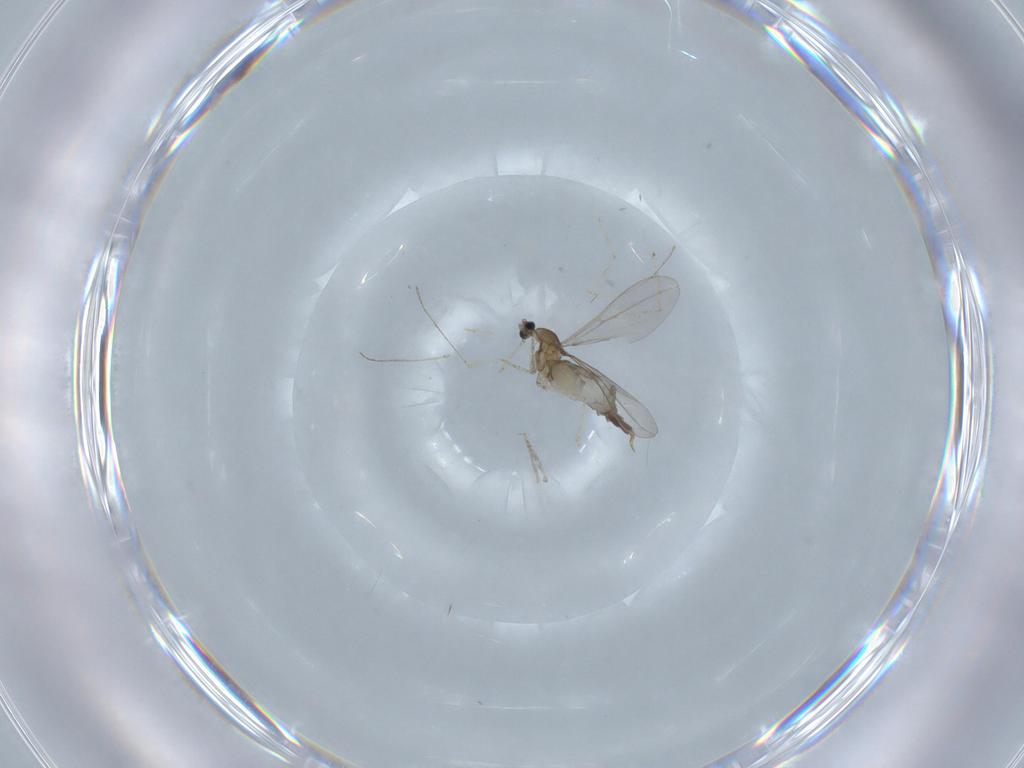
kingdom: Animalia
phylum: Arthropoda
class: Insecta
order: Diptera
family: Cecidomyiidae
